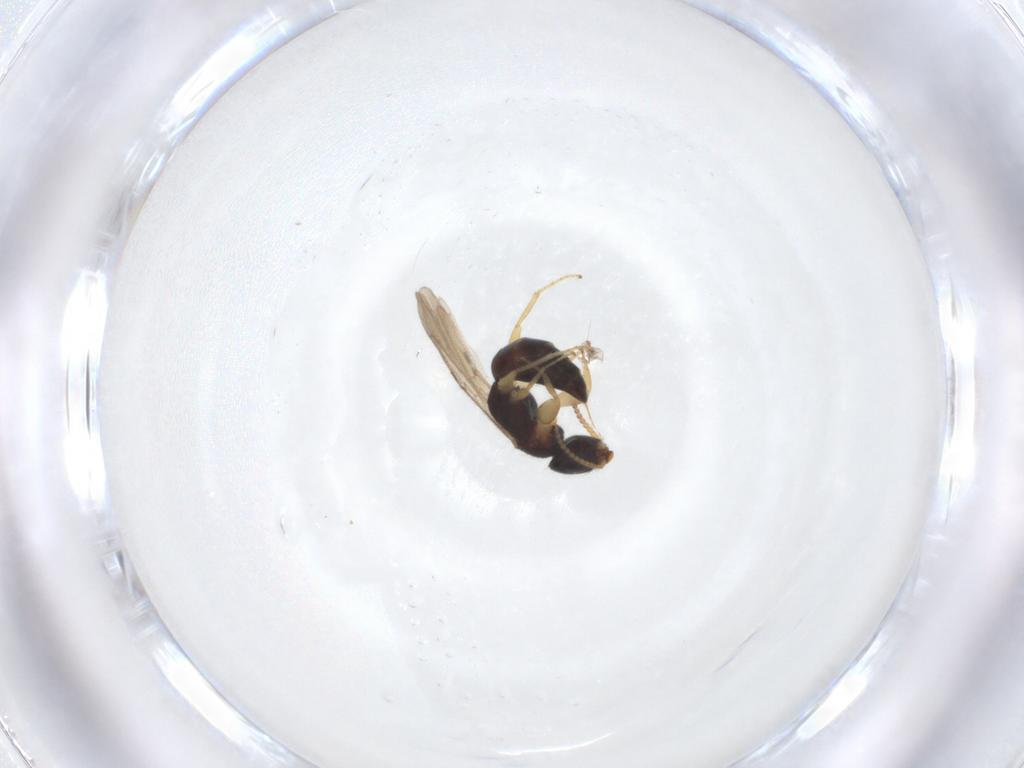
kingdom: Animalia
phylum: Arthropoda
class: Insecta
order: Hymenoptera
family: Bethylidae
